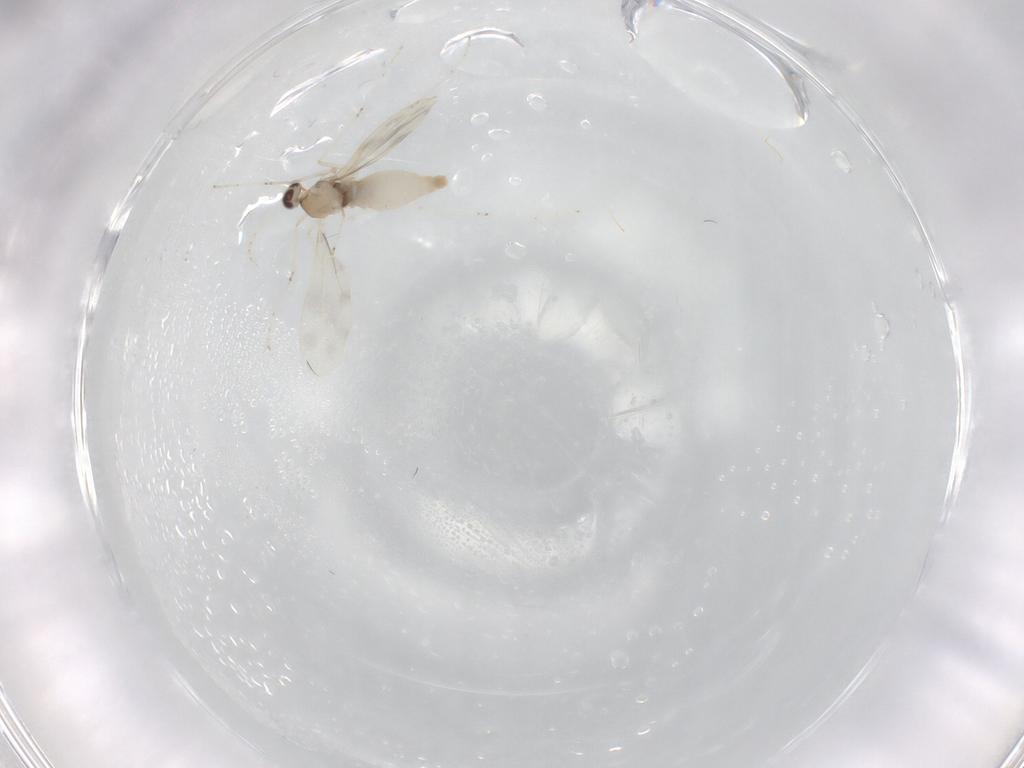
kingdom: Animalia
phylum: Arthropoda
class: Insecta
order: Diptera
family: Cecidomyiidae
